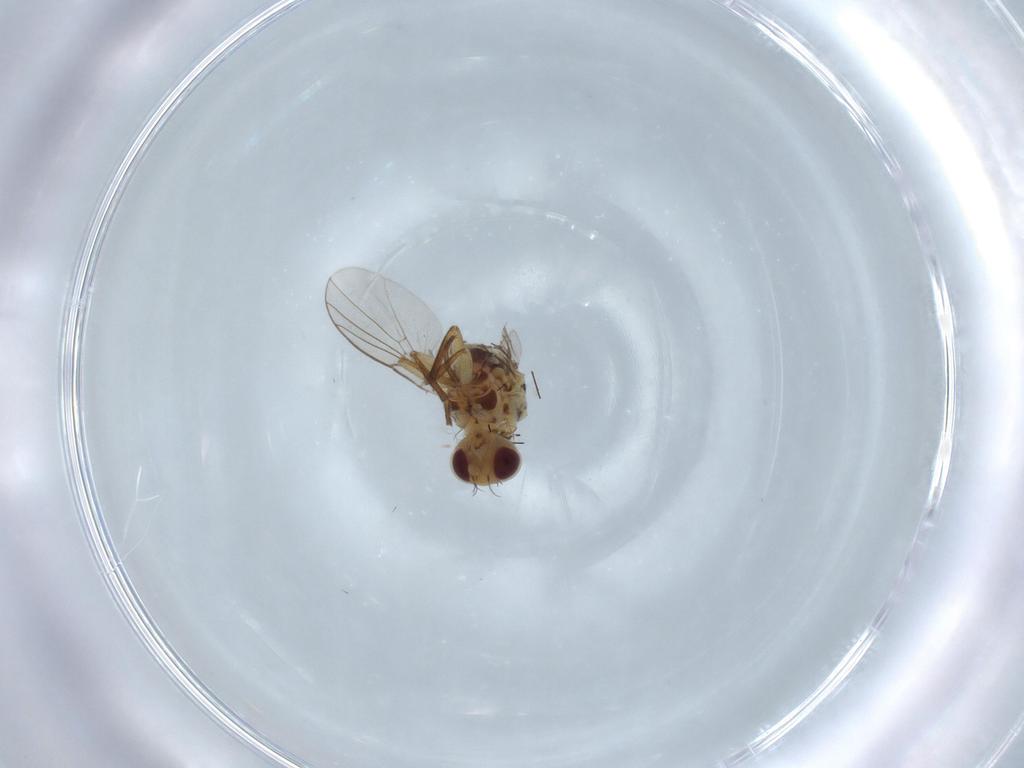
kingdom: Animalia
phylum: Arthropoda
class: Insecta
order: Diptera
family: Agromyzidae
